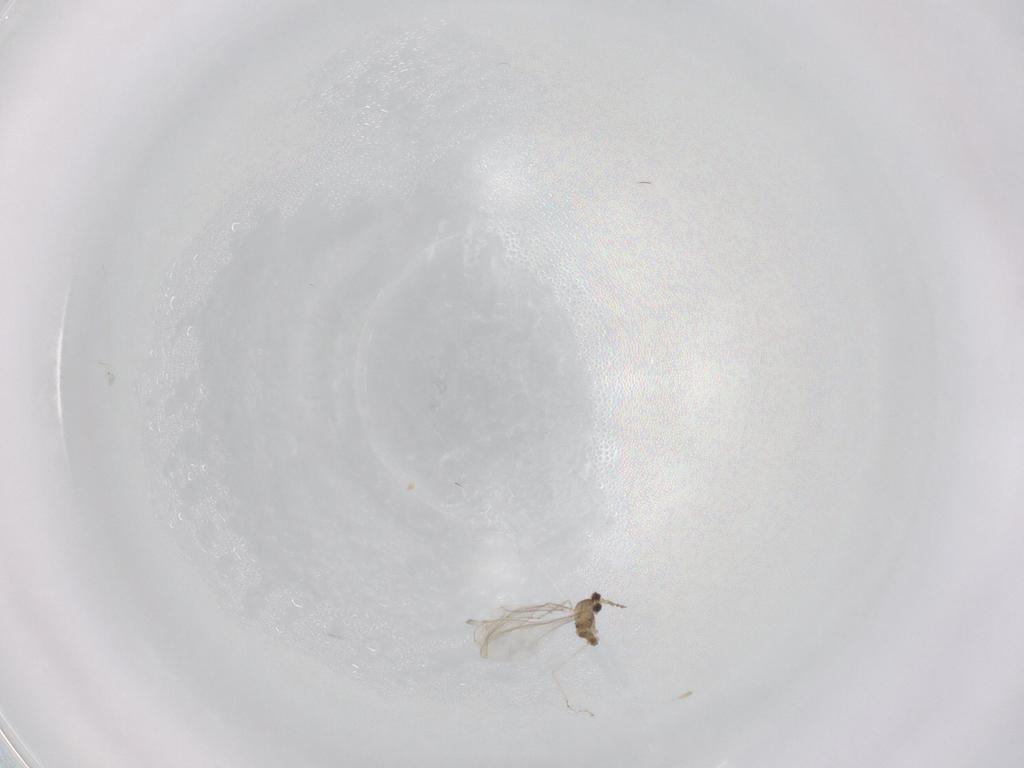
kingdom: Animalia
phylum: Arthropoda
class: Insecta
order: Diptera
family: Cecidomyiidae
